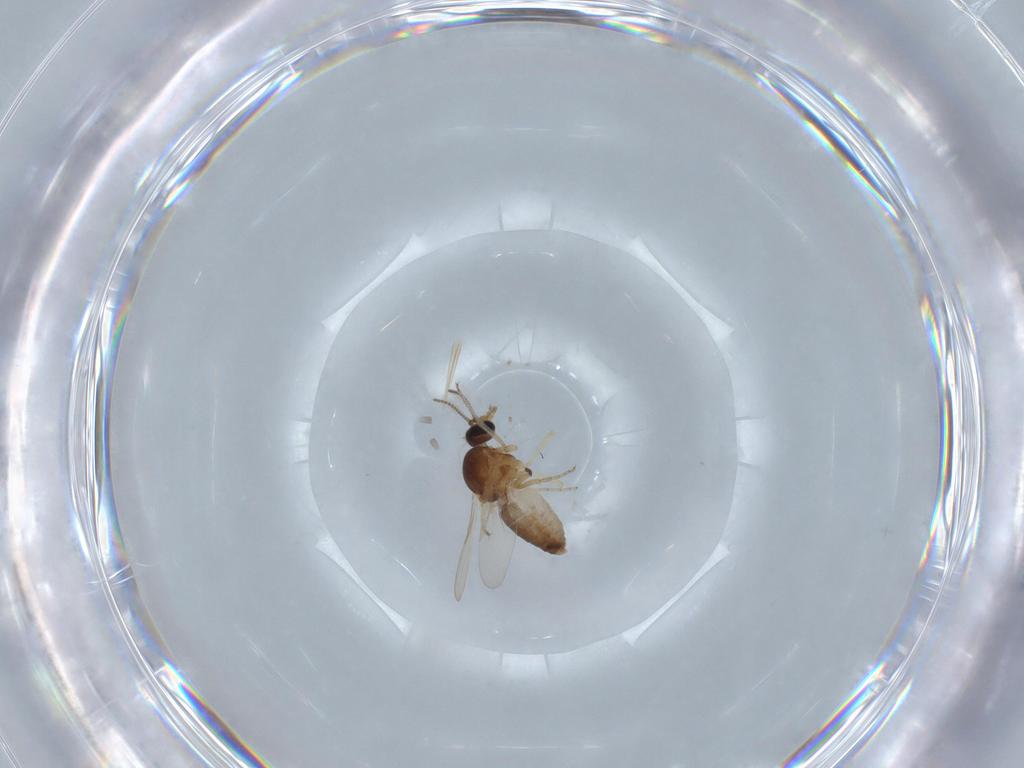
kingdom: Animalia
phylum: Arthropoda
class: Insecta
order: Diptera
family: Ceratopogonidae
